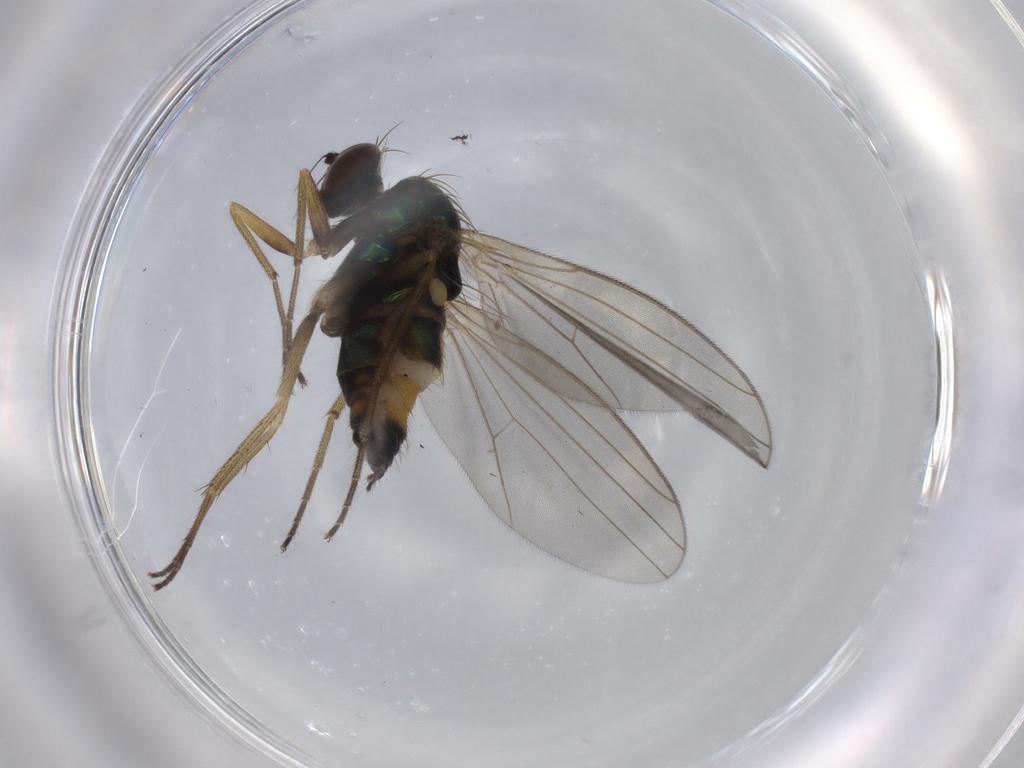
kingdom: Animalia
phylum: Arthropoda
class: Insecta
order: Diptera
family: Dolichopodidae
